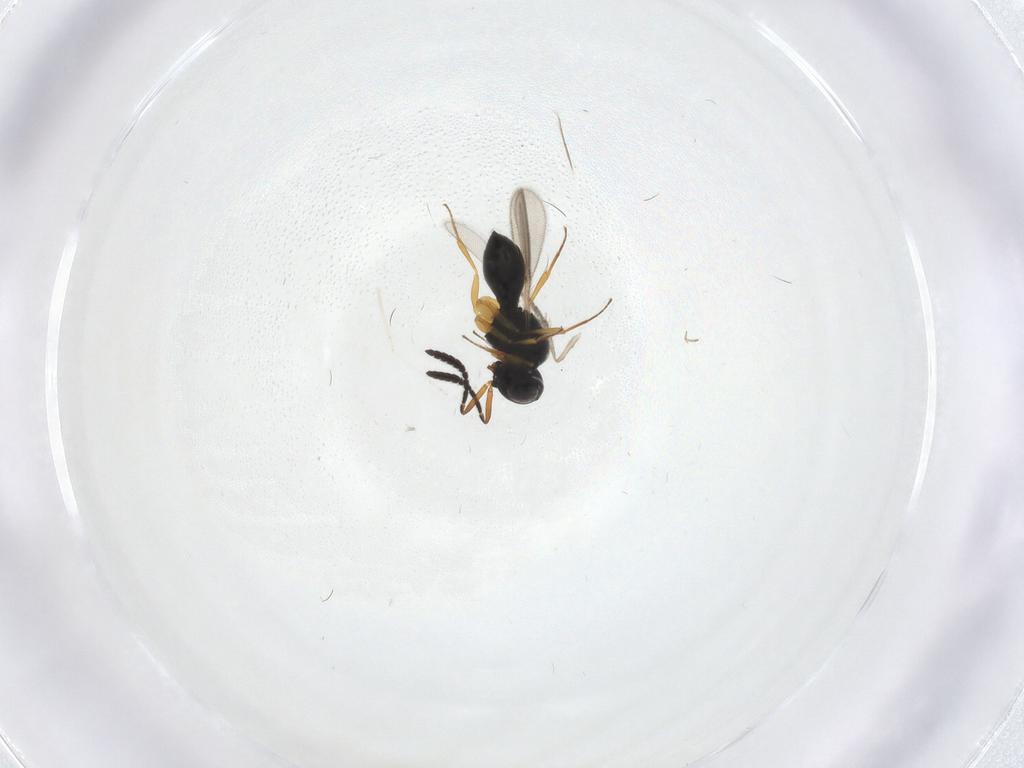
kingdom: Animalia
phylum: Arthropoda
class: Insecta
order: Hymenoptera
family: Scelionidae
